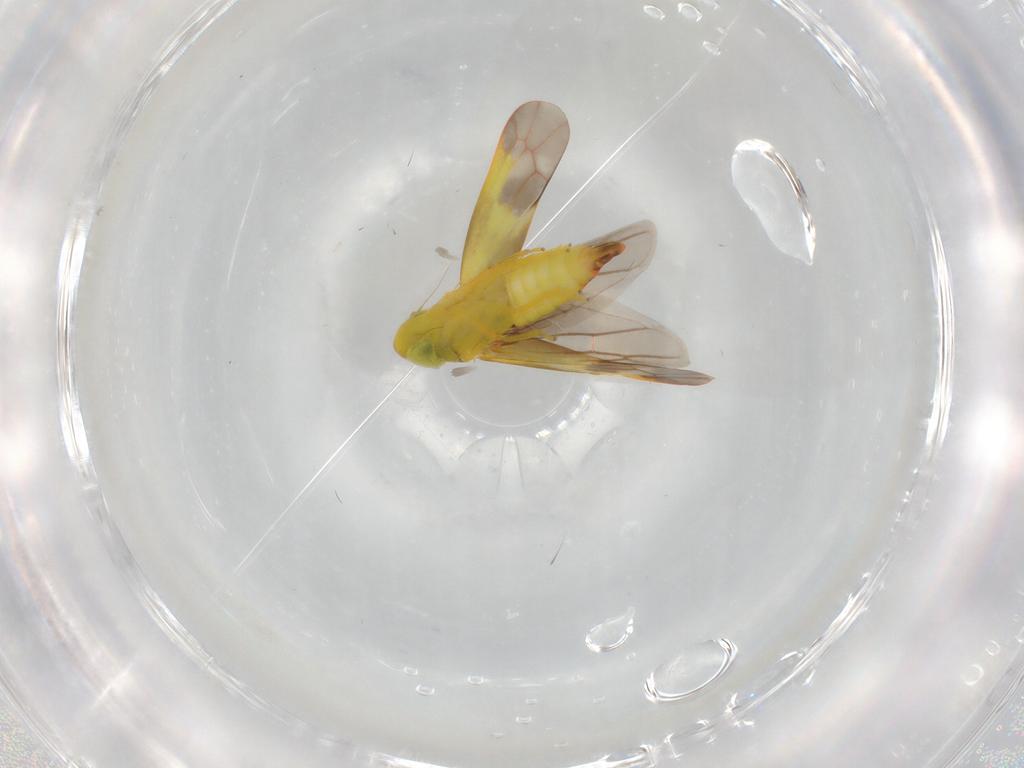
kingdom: Animalia
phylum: Arthropoda
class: Insecta
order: Hemiptera
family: Cicadellidae
